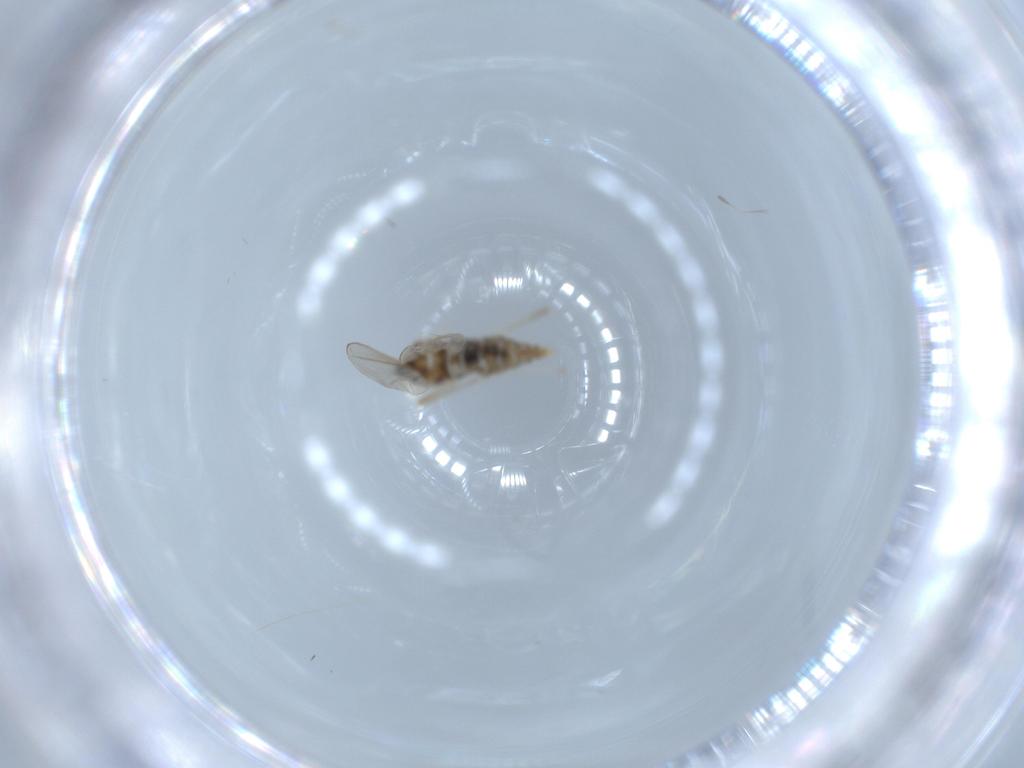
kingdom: Animalia
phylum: Arthropoda
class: Insecta
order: Diptera
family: Cecidomyiidae
